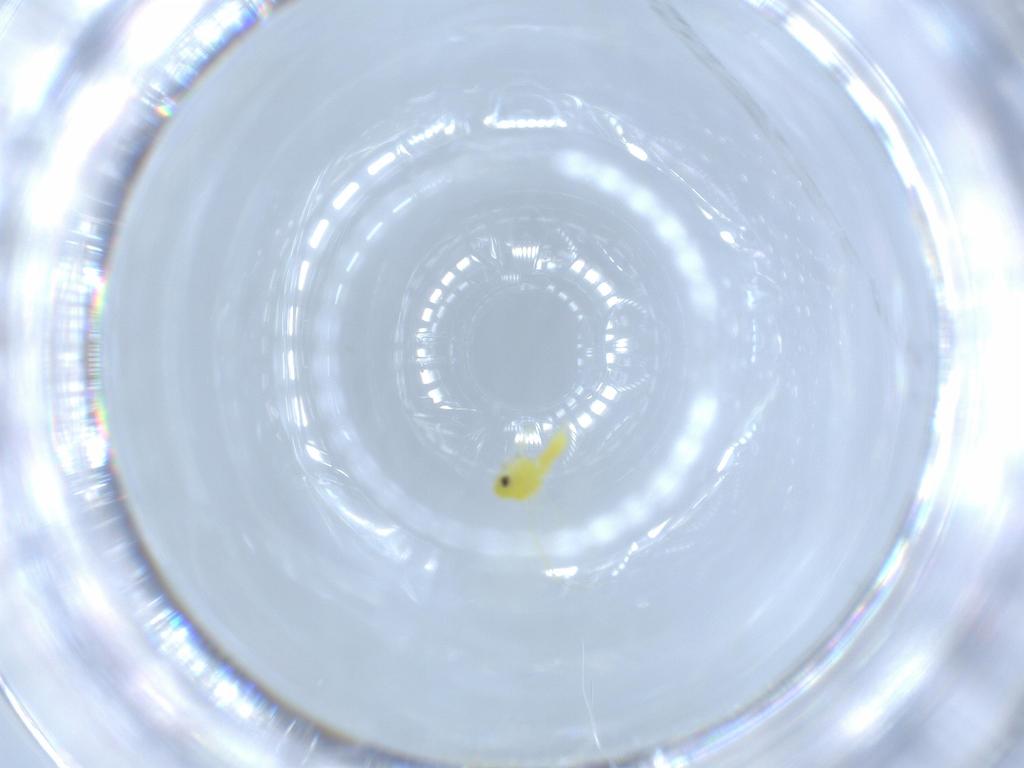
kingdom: Animalia
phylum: Arthropoda
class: Insecta
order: Hemiptera
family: Aleyrodidae
